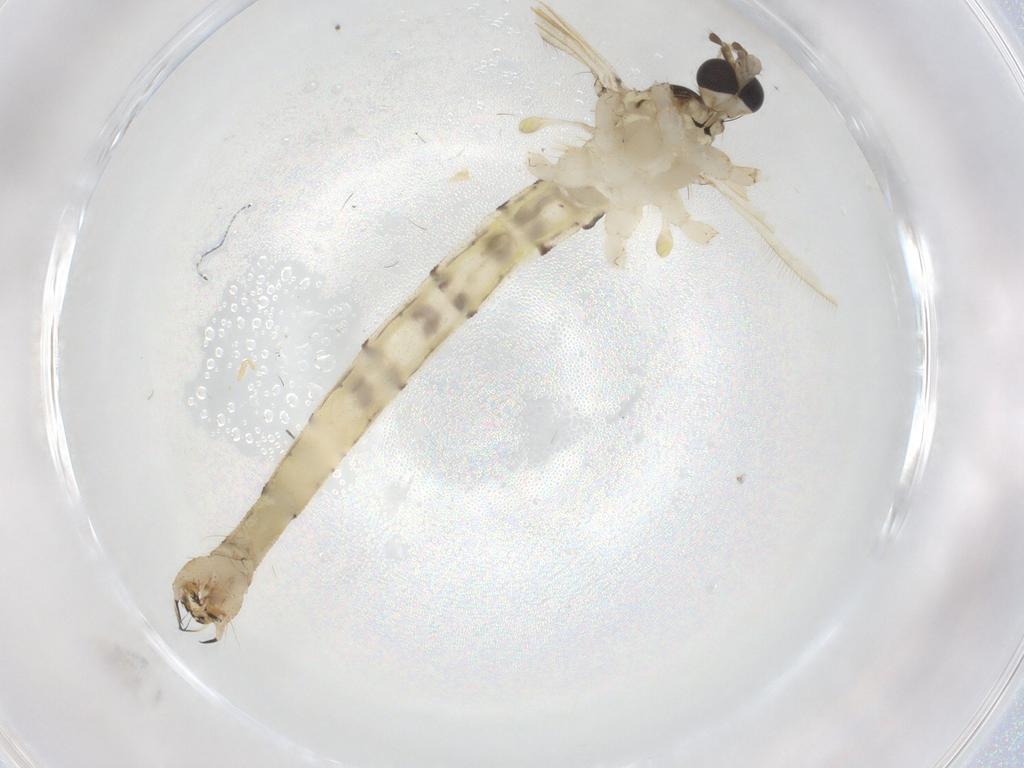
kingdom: Animalia
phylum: Arthropoda
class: Insecta
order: Diptera
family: Limoniidae
